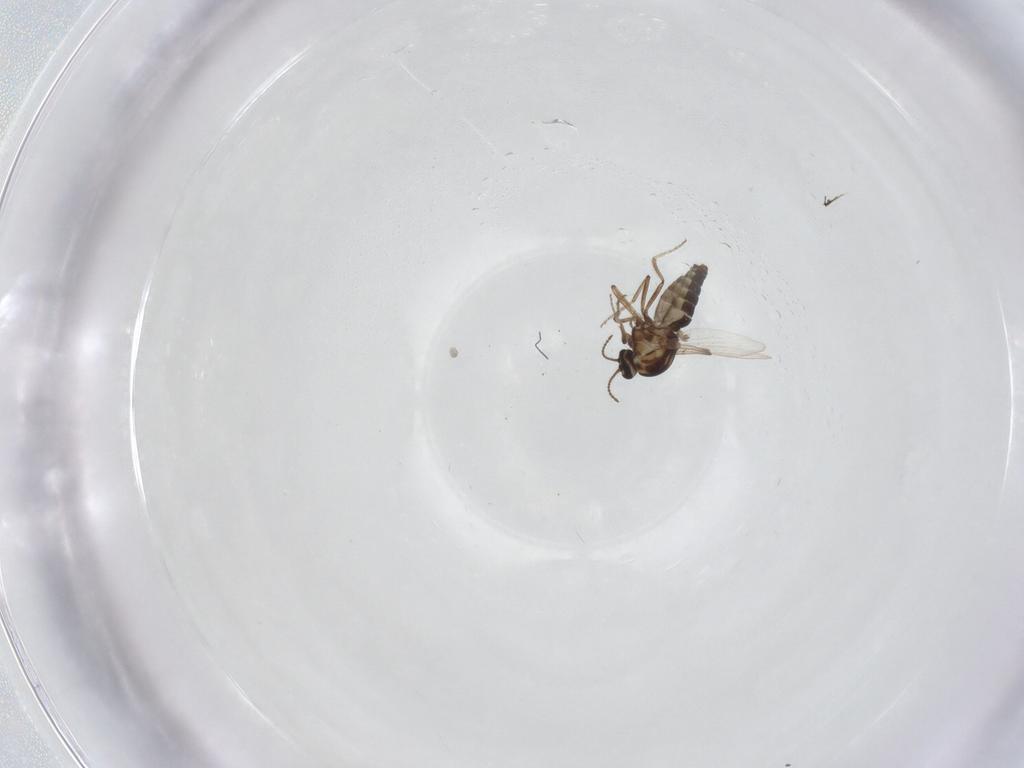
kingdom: Animalia
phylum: Arthropoda
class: Insecta
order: Diptera
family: Ceratopogonidae
